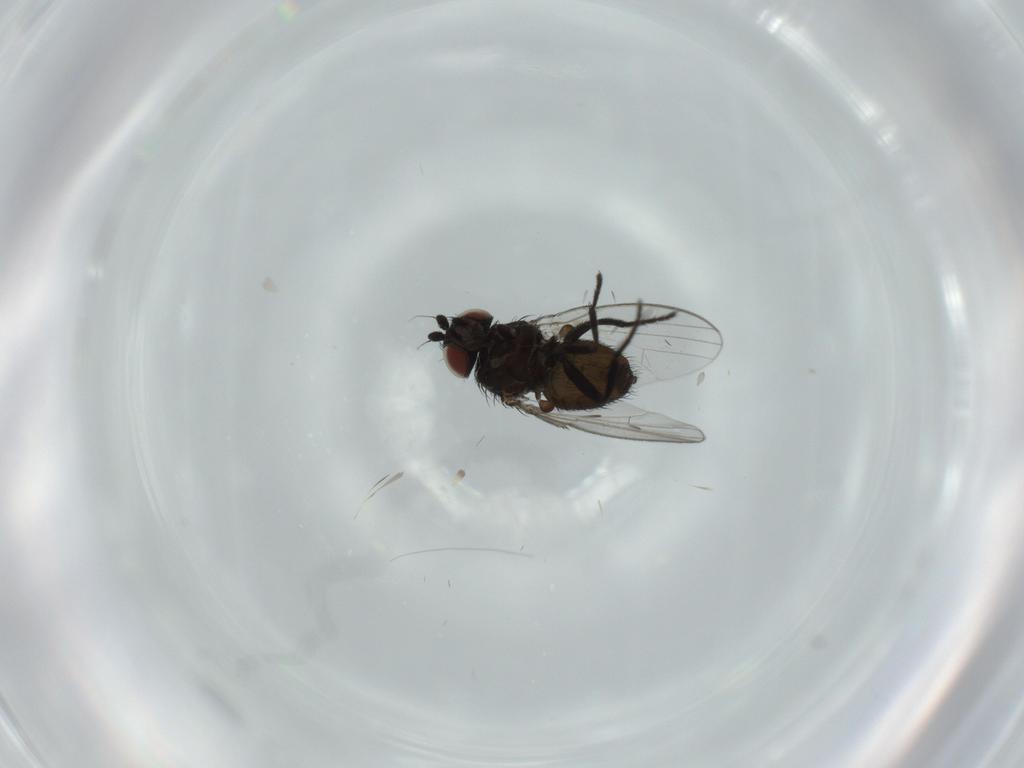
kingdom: Animalia
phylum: Arthropoda
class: Insecta
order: Diptera
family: Milichiidae
